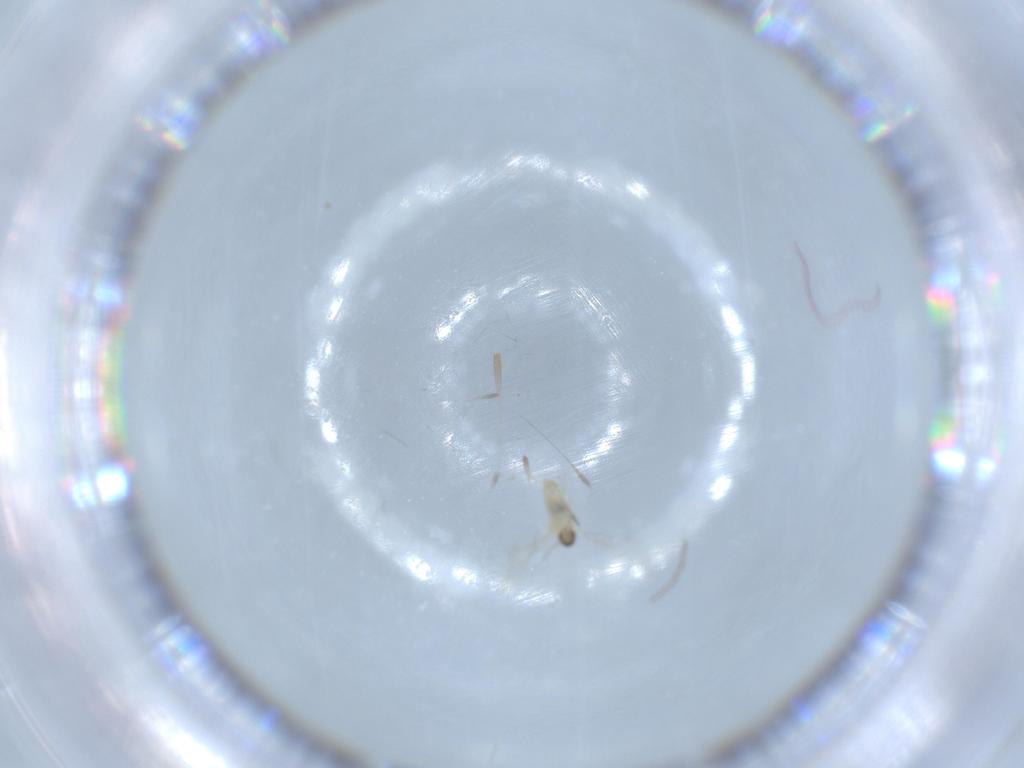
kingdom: Animalia
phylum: Arthropoda
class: Insecta
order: Diptera
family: Cecidomyiidae
